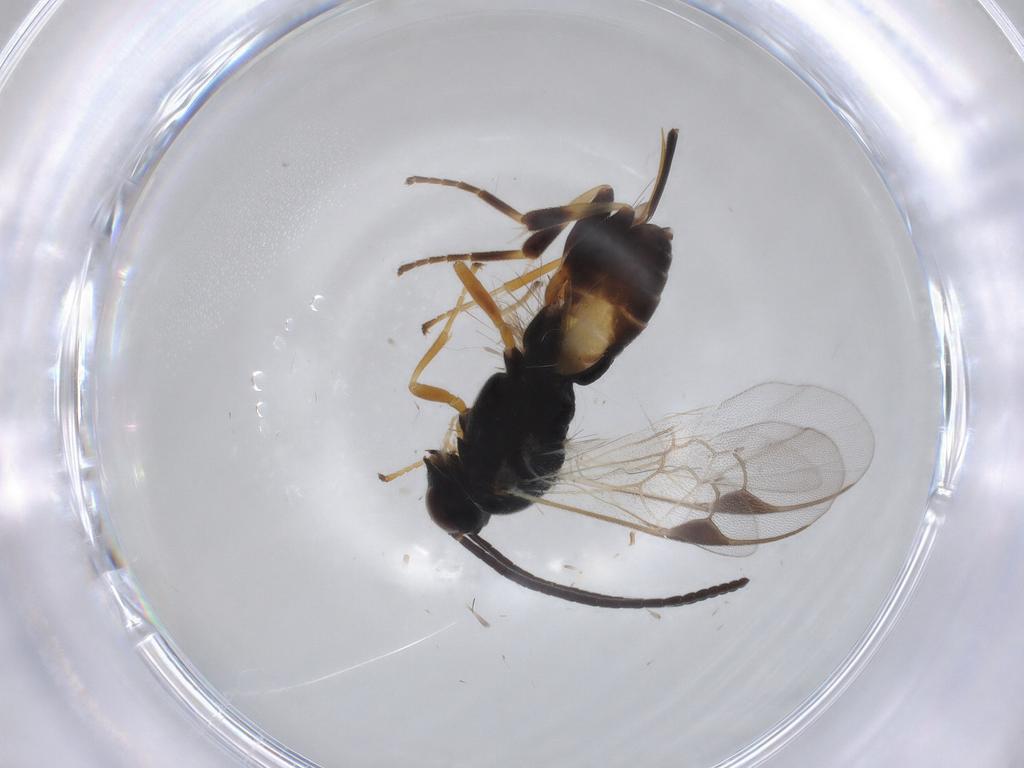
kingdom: Animalia
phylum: Arthropoda
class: Insecta
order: Hymenoptera
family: Braconidae
